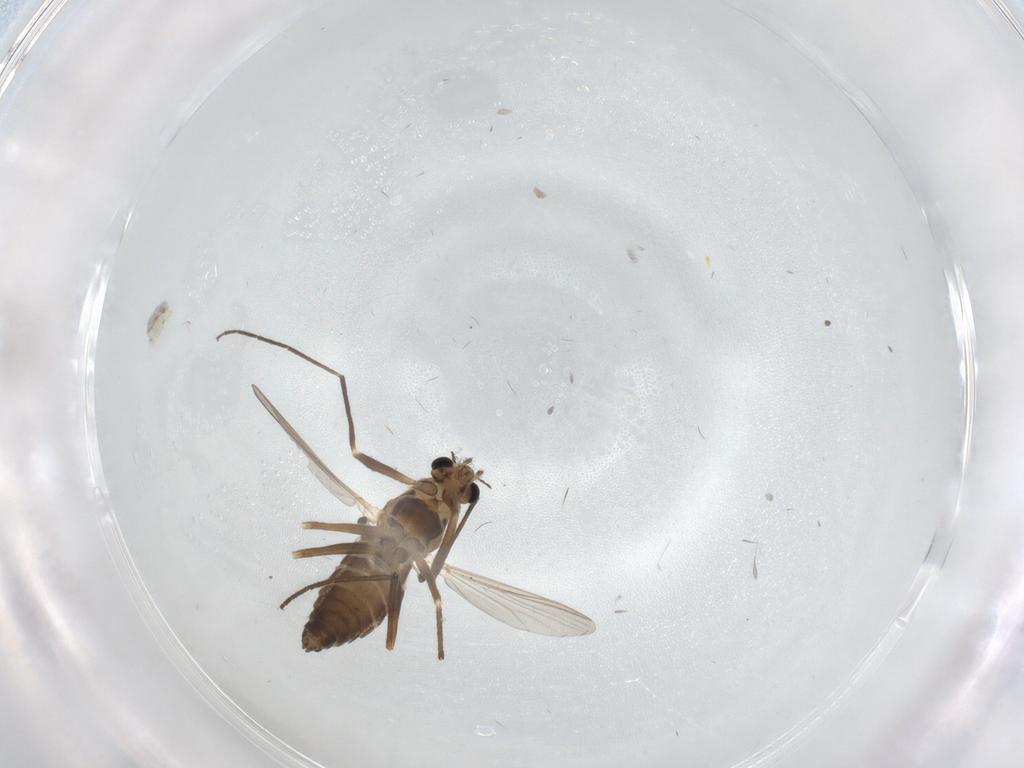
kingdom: Animalia
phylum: Arthropoda
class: Insecta
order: Diptera
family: Chironomidae
